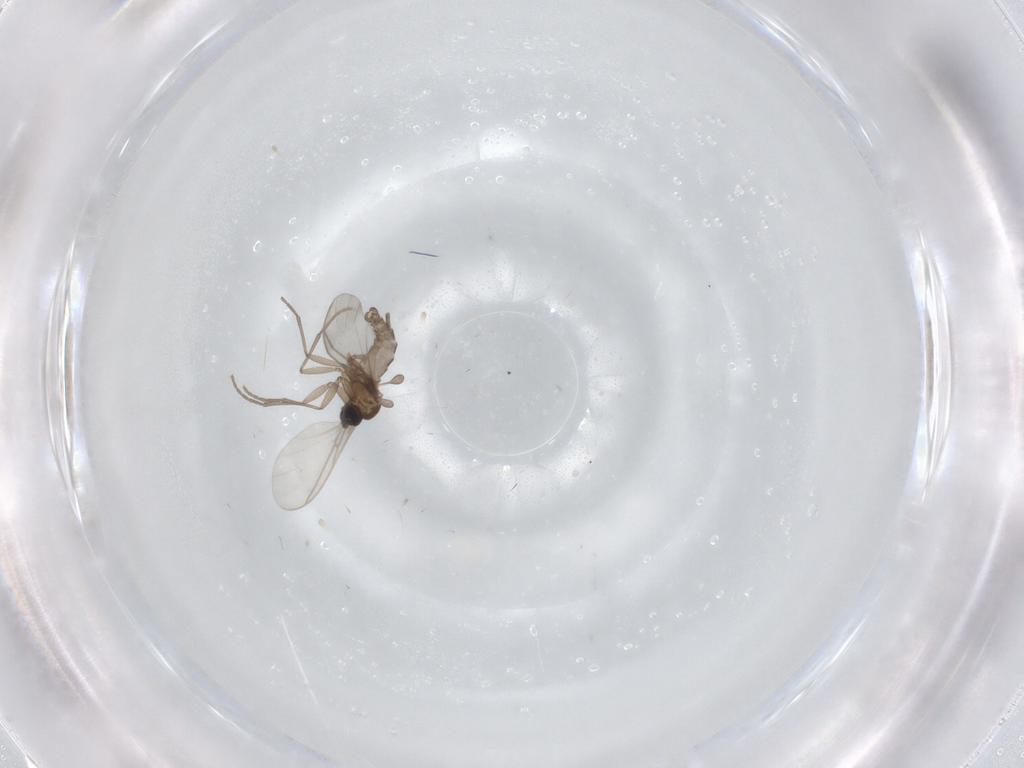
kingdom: Animalia
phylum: Arthropoda
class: Insecta
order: Diptera
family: Sciaridae
